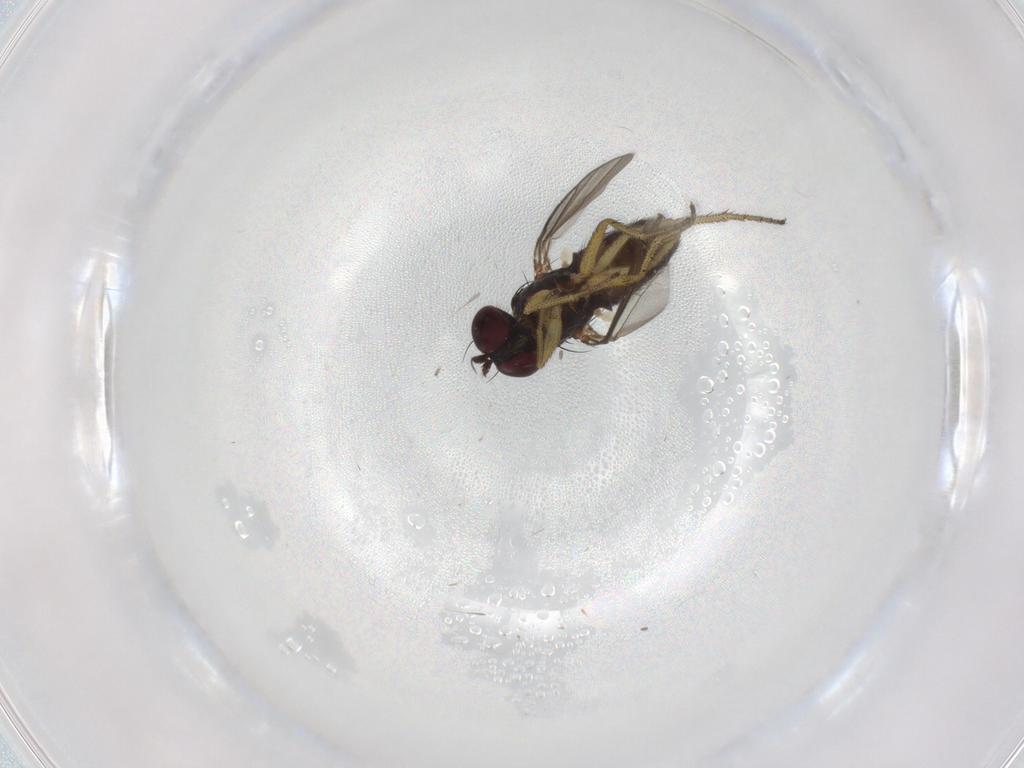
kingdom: Animalia
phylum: Arthropoda
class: Insecta
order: Diptera
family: Dolichopodidae
